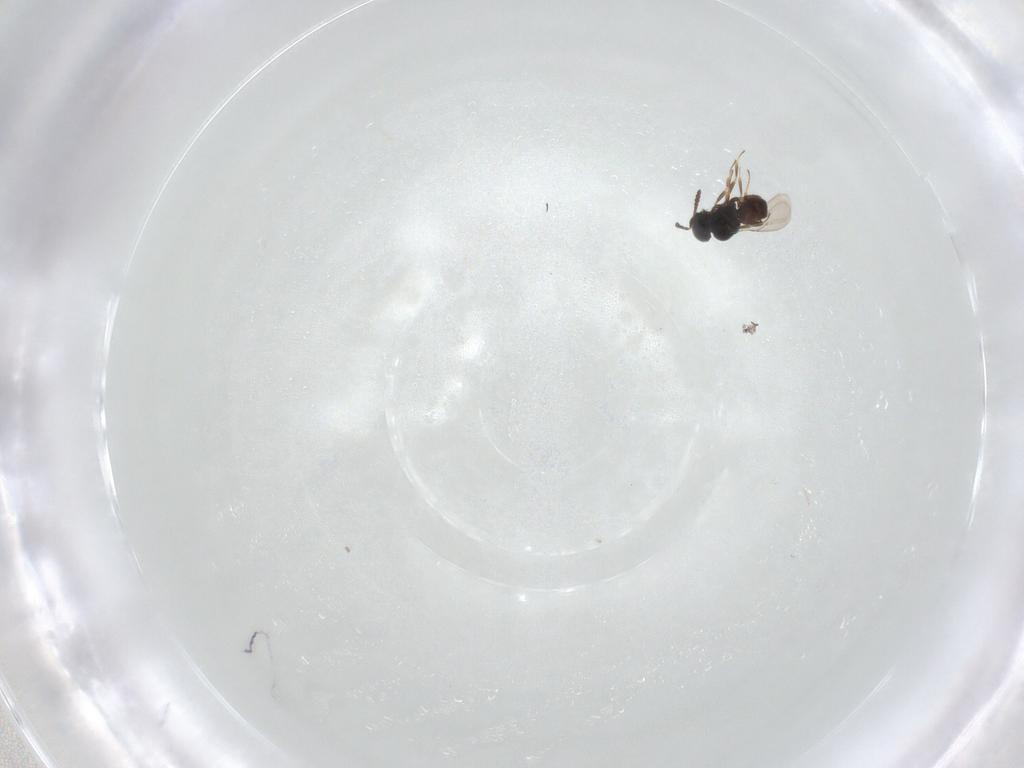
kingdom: Animalia
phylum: Arthropoda
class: Insecta
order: Hymenoptera
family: Scelionidae
